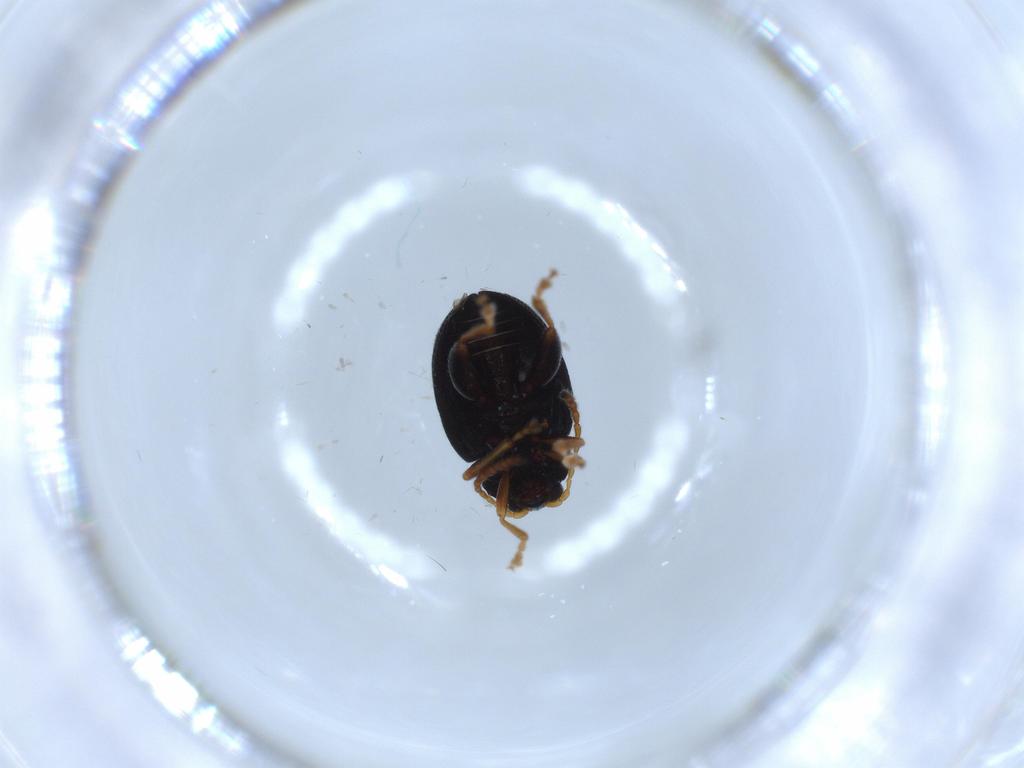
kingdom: Animalia
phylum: Arthropoda
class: Insecta
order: Coleoptera
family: Chrysomelidae
